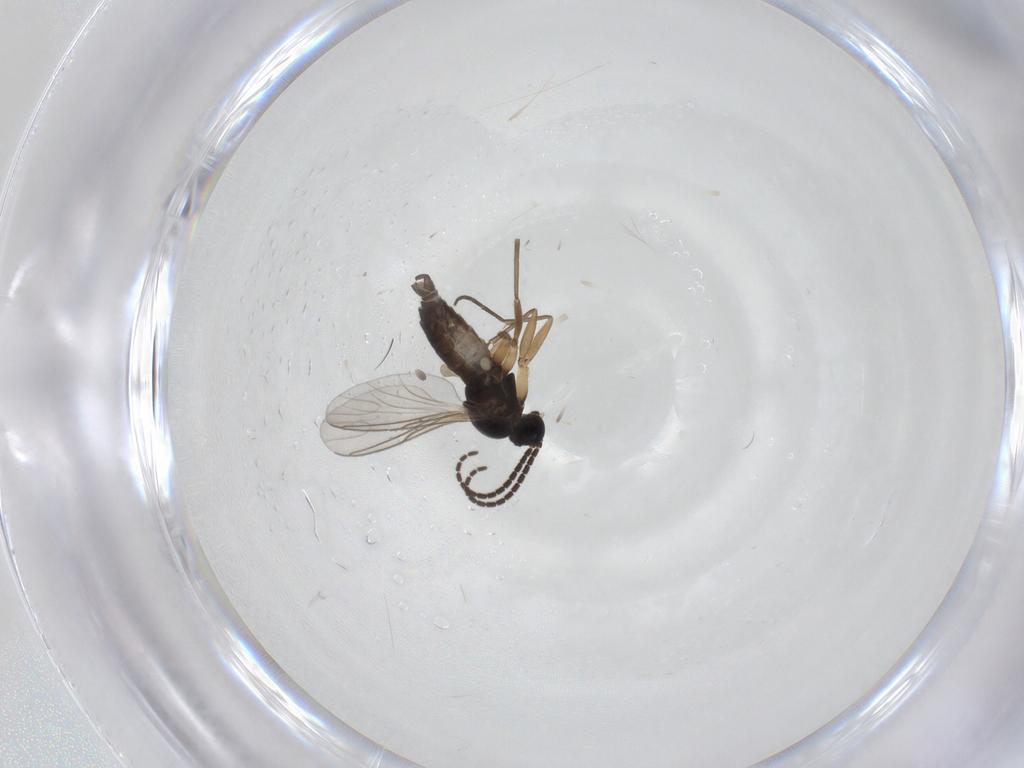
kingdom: Animalia
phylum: Arthropoda
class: Insecta
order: Diptera
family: Sciaridae
